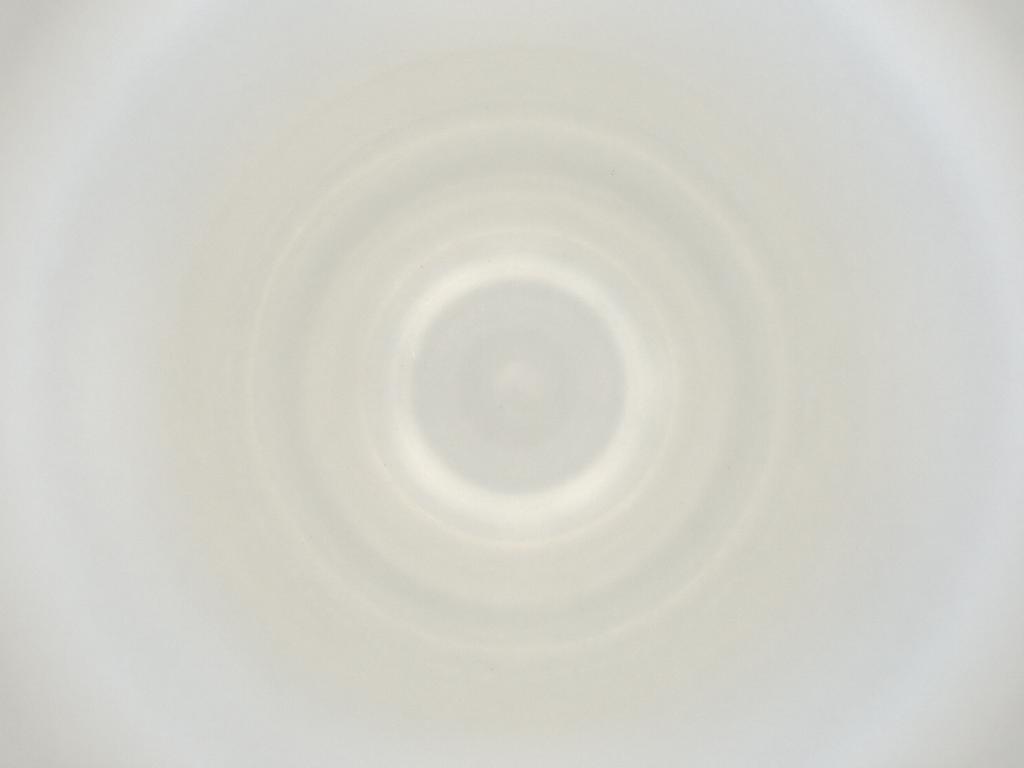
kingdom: Animalia
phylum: Arthropoda
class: Insecta
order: Diptera
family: Cecidomyiidae
